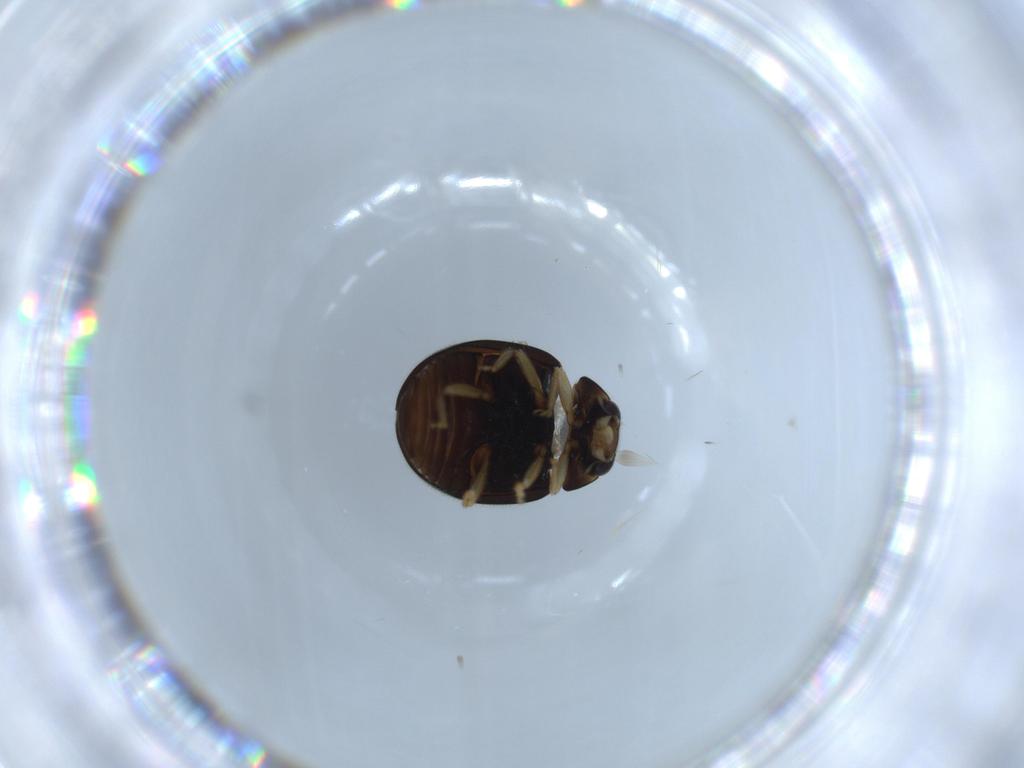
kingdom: Animalia
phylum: Arthropoda
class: Insecta
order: Coleoptera
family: Coccinellidae
